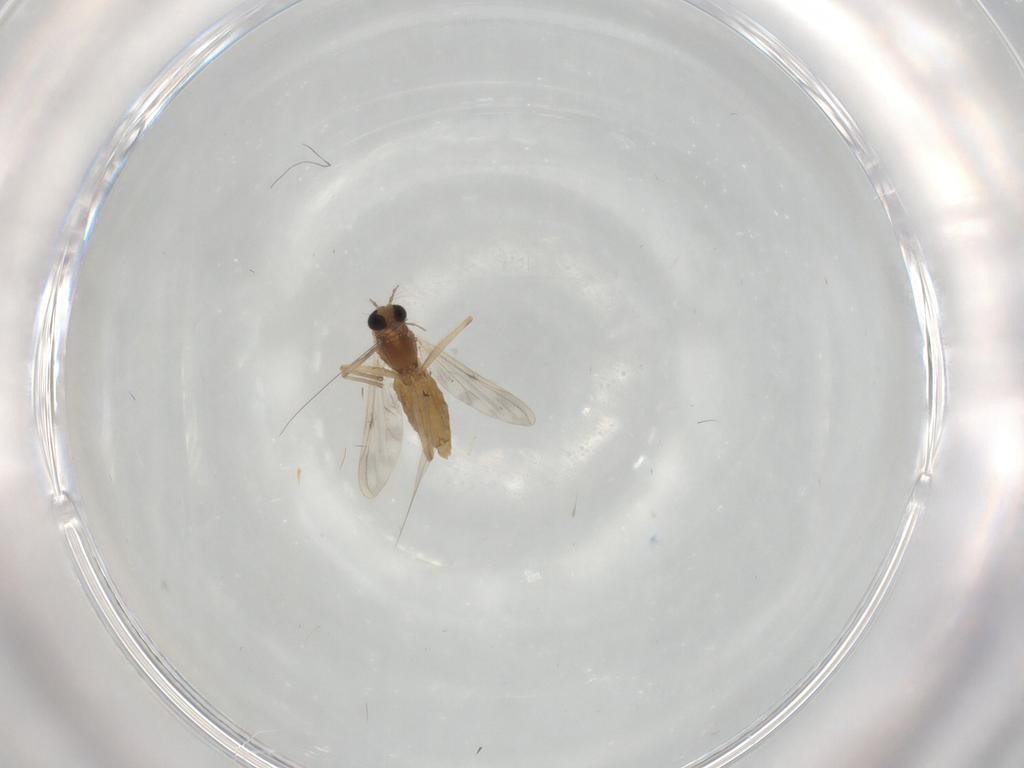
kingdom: Animalia
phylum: Arthropoda
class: Insecta
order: Diptera
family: Chironomidae
